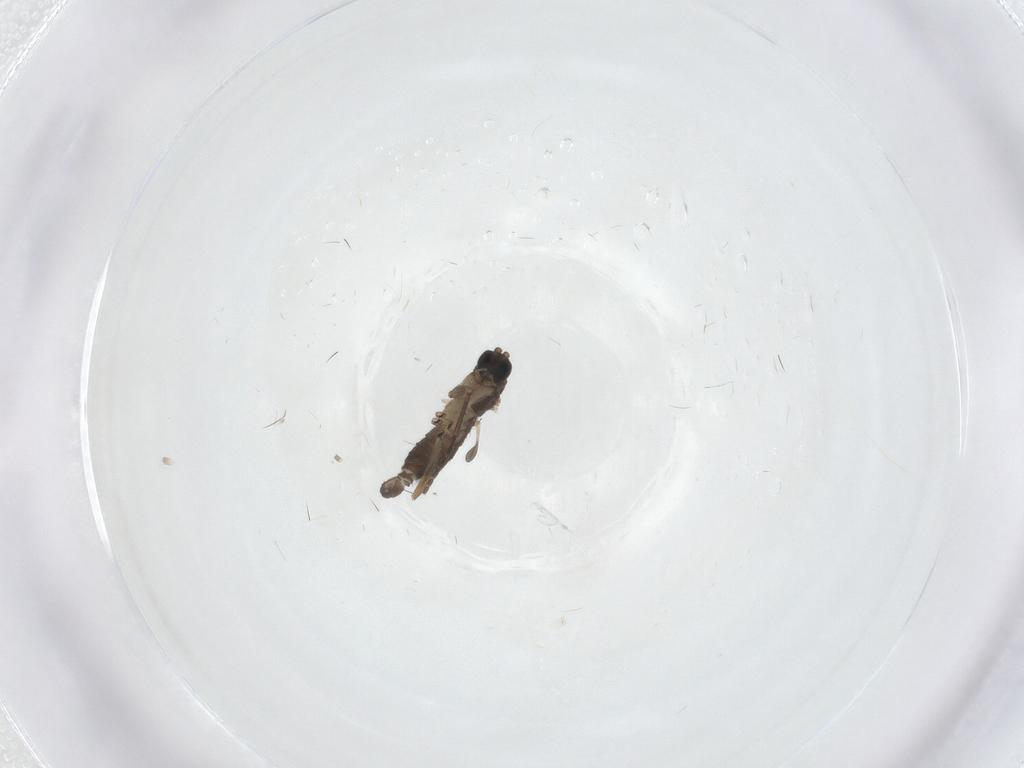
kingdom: Animalia
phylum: Arthropoda
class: Insecta
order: Diptera
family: Sciaridae
